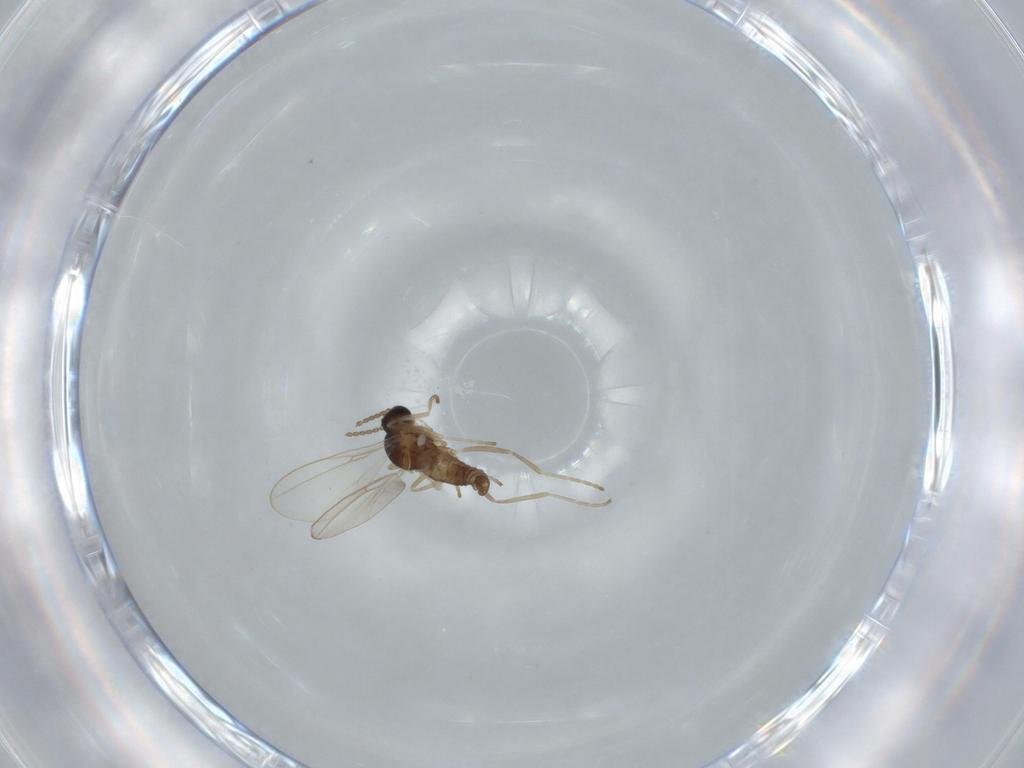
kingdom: Animalia
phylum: Arthropoda
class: Insecta
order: Diptera
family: Cecidomyiidae
